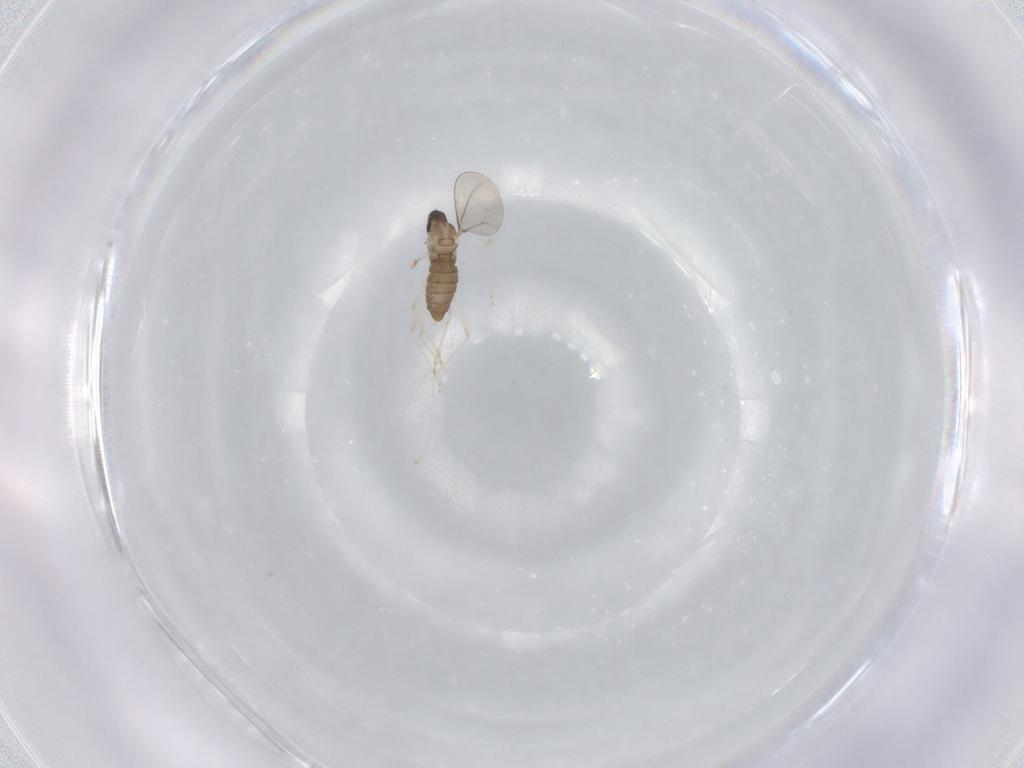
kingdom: Animalia
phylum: Arthropoda
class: Insecta
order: Diptera
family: Cecidomyiidae
